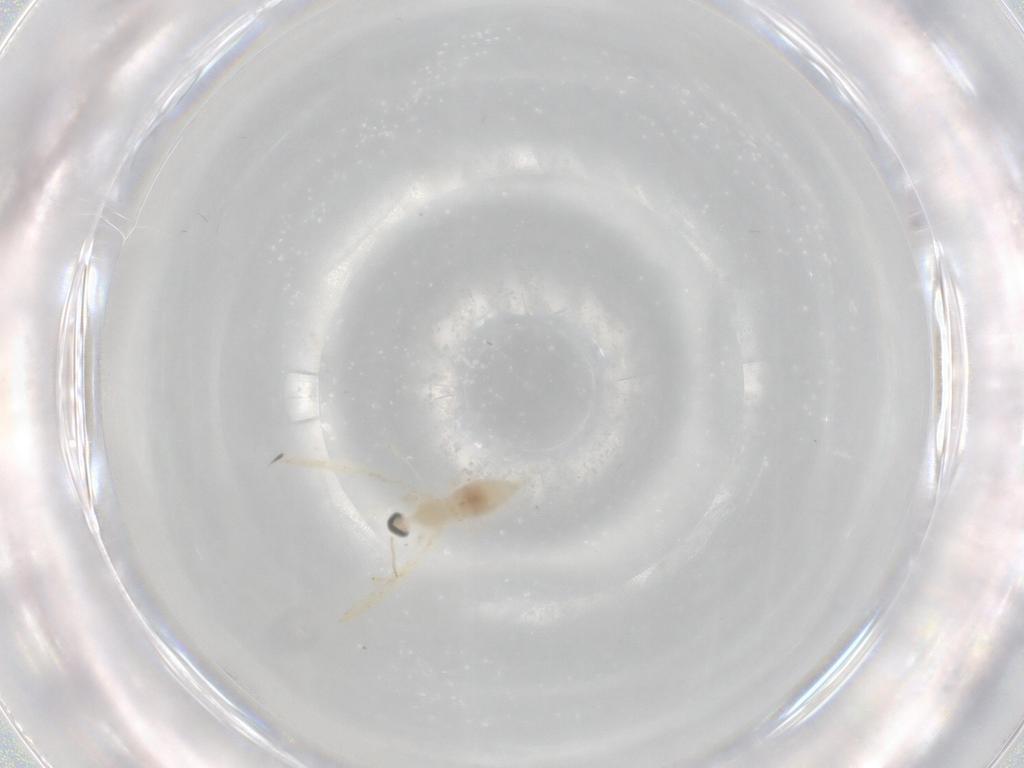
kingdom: Animalia
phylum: Arthropoda
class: Insecta
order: Diptera
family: Cecidomyiidae
